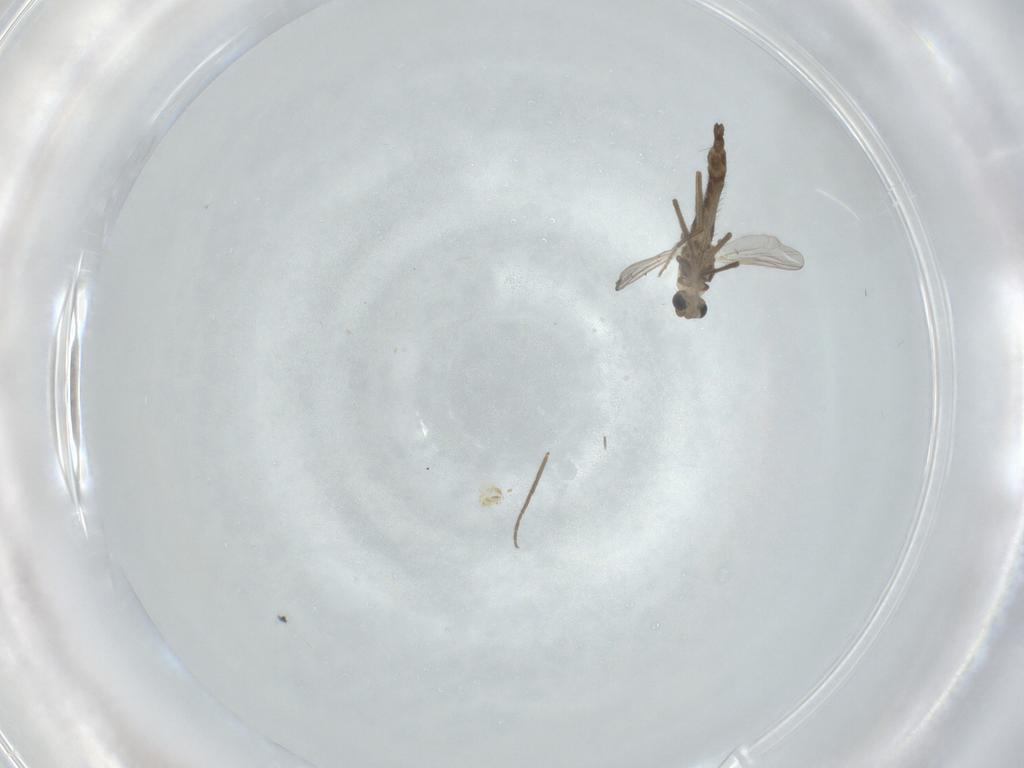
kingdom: Animalia
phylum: Arthropoda
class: Insecta
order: Diptera
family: Chironomidae
